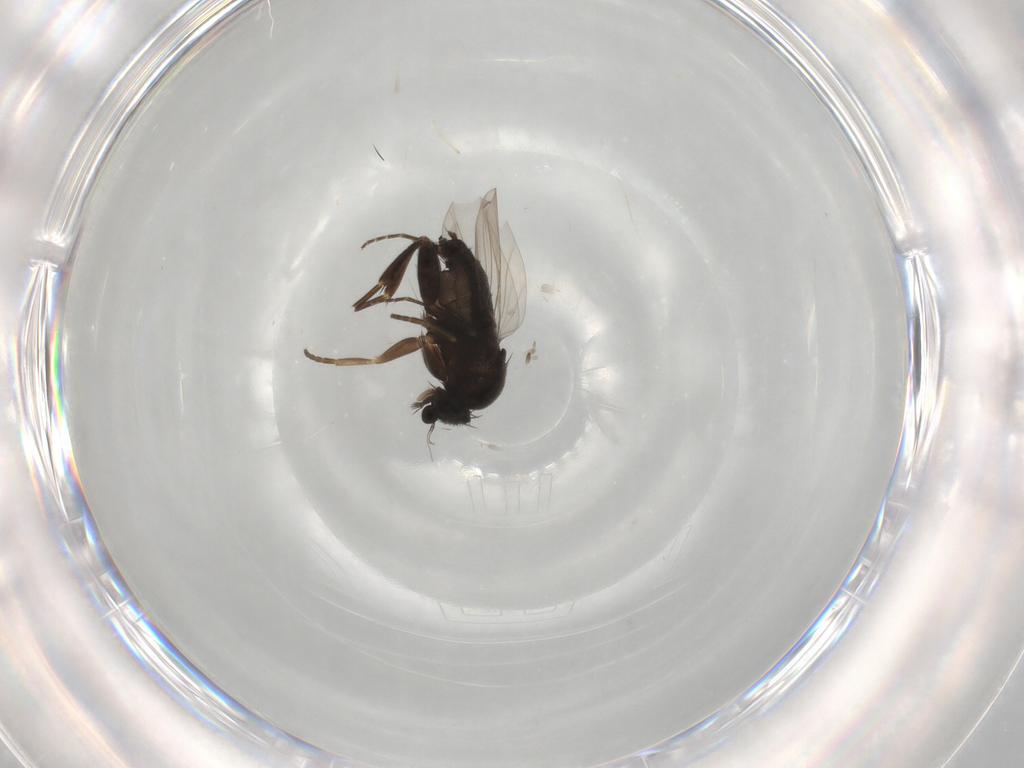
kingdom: Animalia
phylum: Arthropoda
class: Insecta
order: Diptera
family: Phoridae
